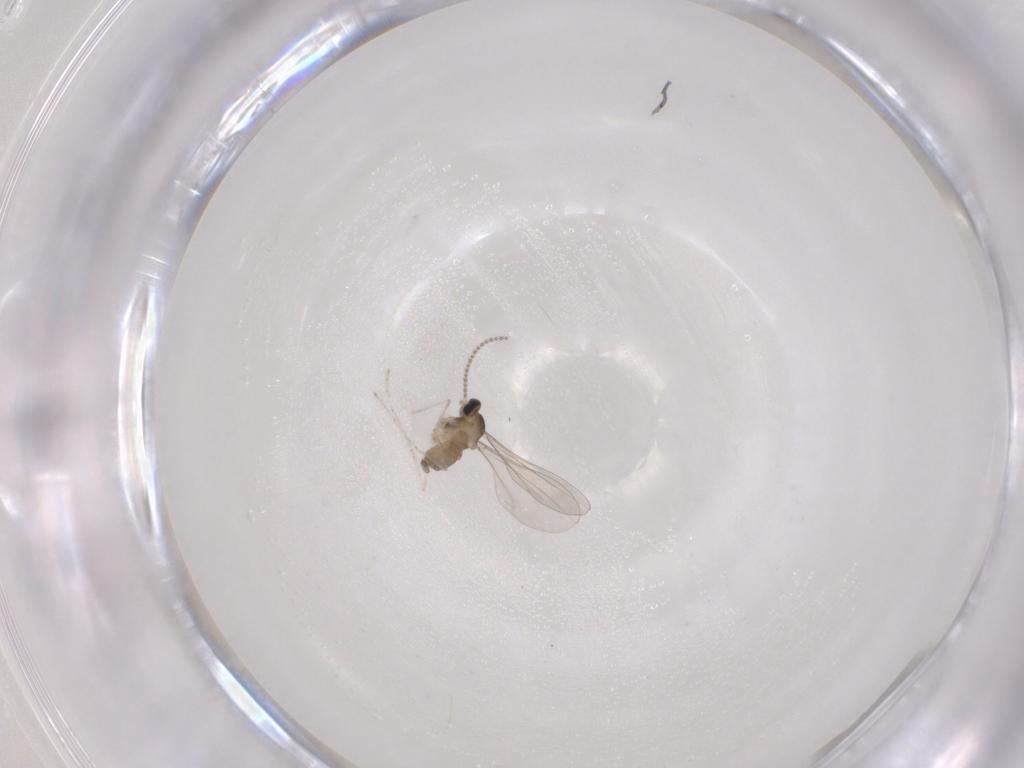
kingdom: Animalia
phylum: Arthropoda
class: Insecta
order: Diptera
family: Cecidomyiidae
